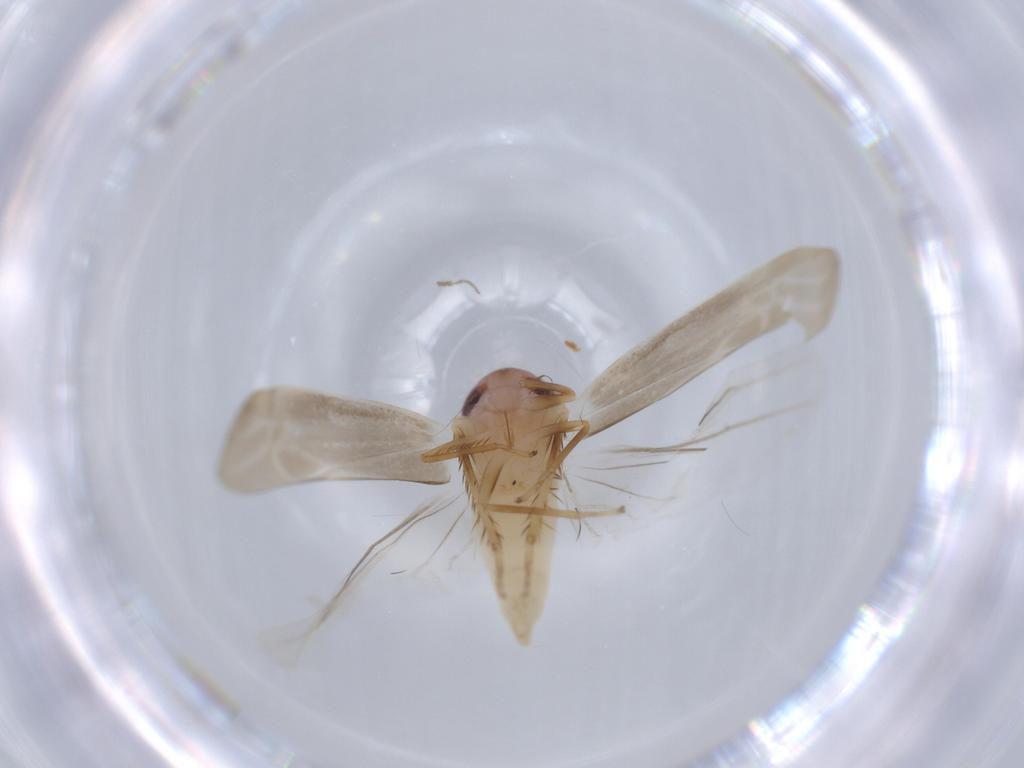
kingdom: Animalia
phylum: Arthropoda
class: Insecta
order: Hemiptera
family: Cicadellidae
